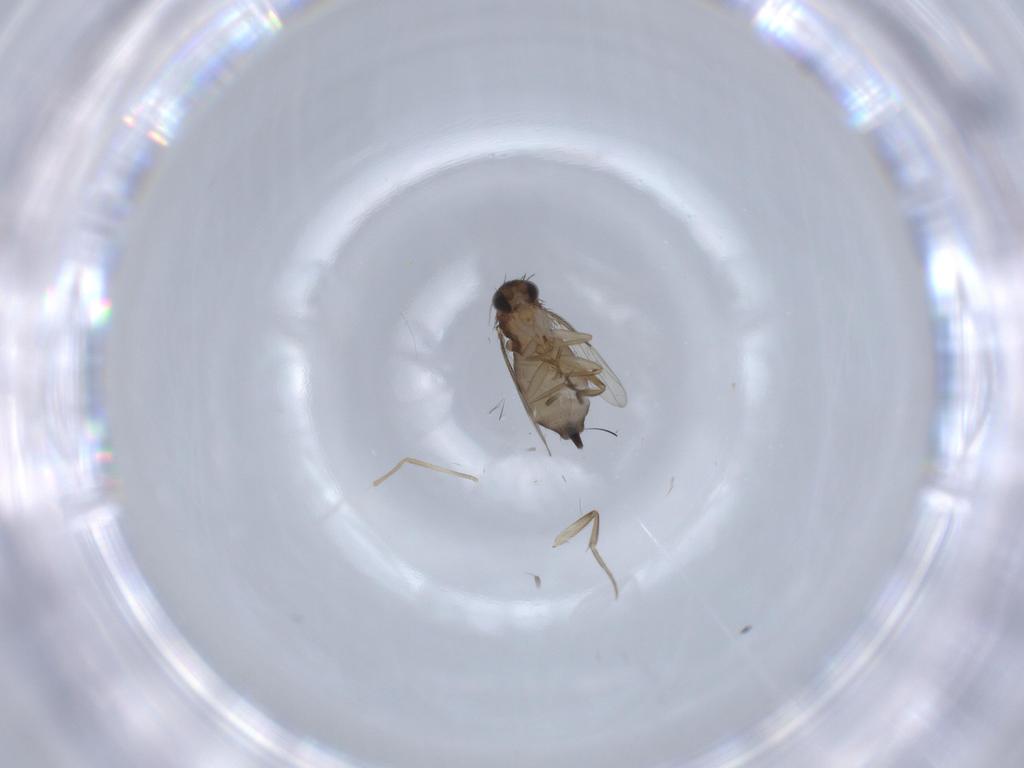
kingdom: Animalia
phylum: Arthropoda
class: Insecta
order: Diptera
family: Phoridae
